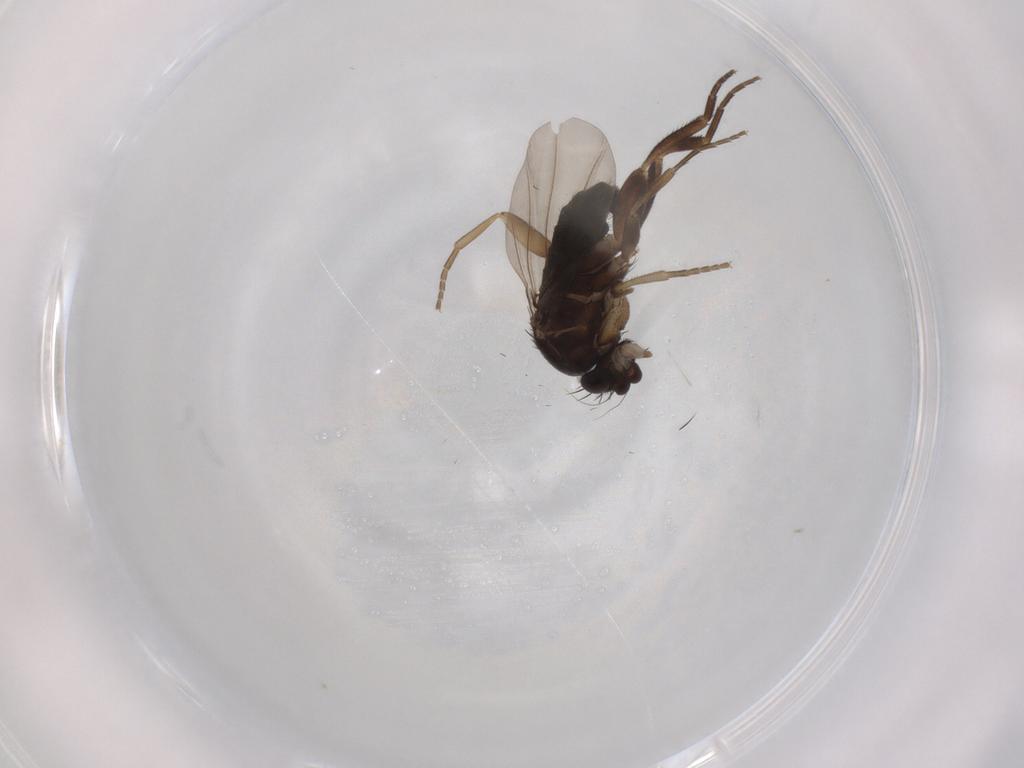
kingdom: Animalia
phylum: Arthropoda
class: Insecta
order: Diptera
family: Phoridae
